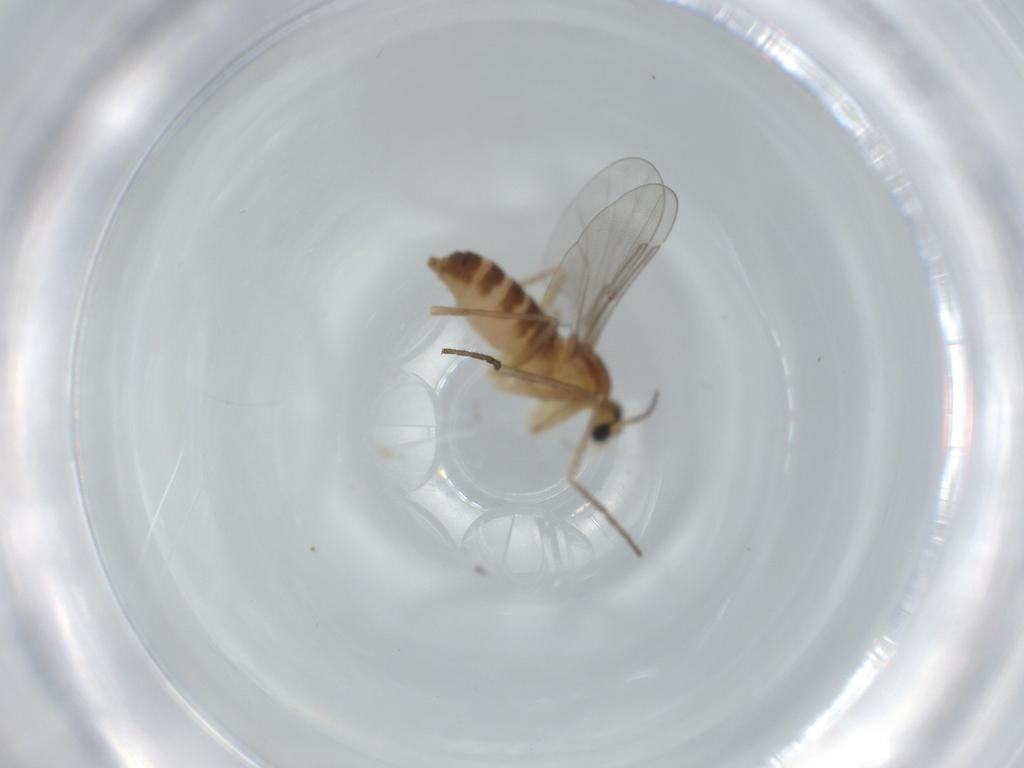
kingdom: Animalia
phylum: Arthropoda
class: Insecta
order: Diptera
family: Cecidomyiidae
